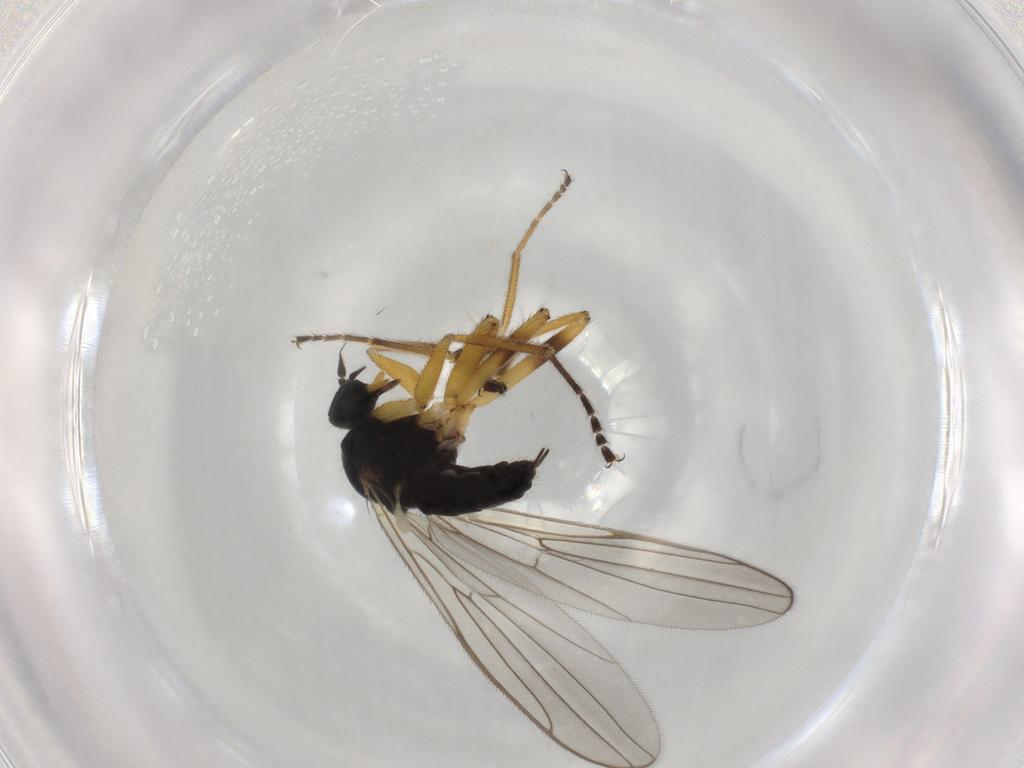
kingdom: Animalia
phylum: Arthropoda
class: Insecta
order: Diptera
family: Hybotidae
